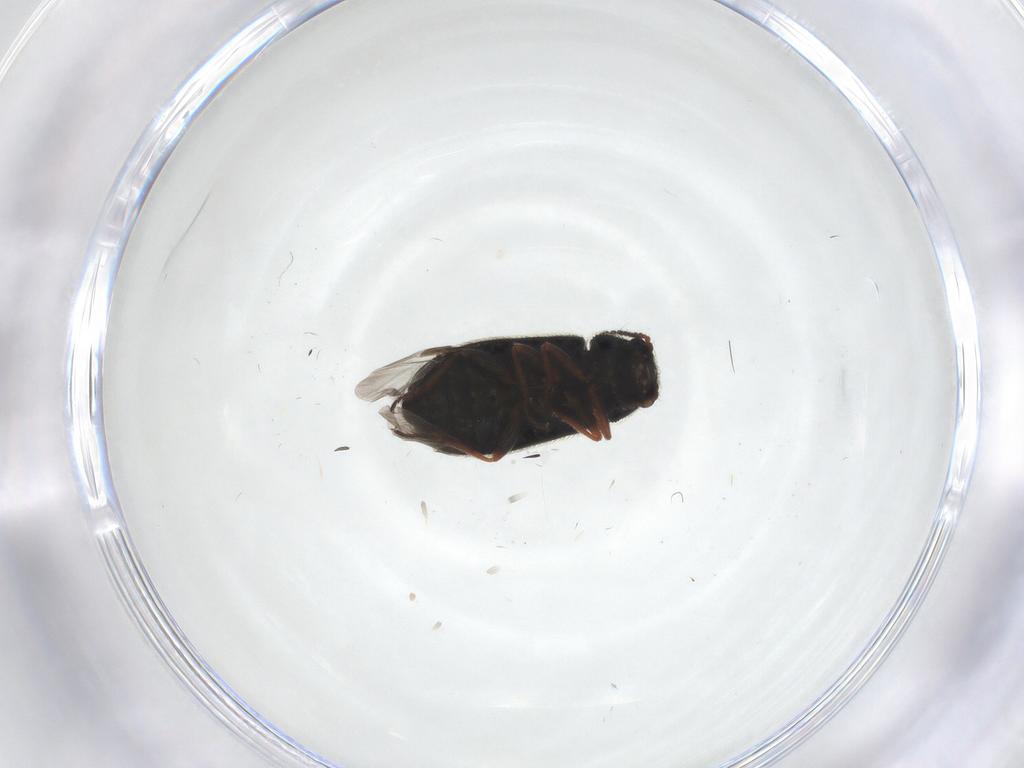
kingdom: Animalia
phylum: Arthropoda
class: Insecta
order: Coleoptera
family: Melyridae
